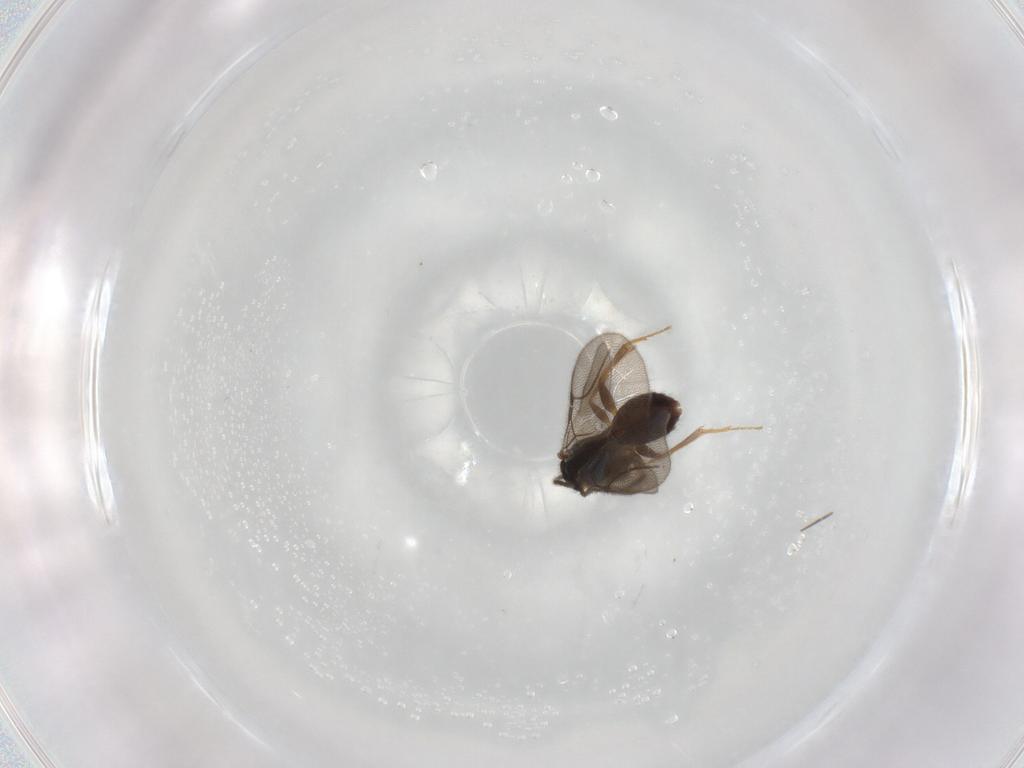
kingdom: Animalia
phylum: Arthropoda
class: Insecta
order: Hymenoptera
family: Bethylidae
